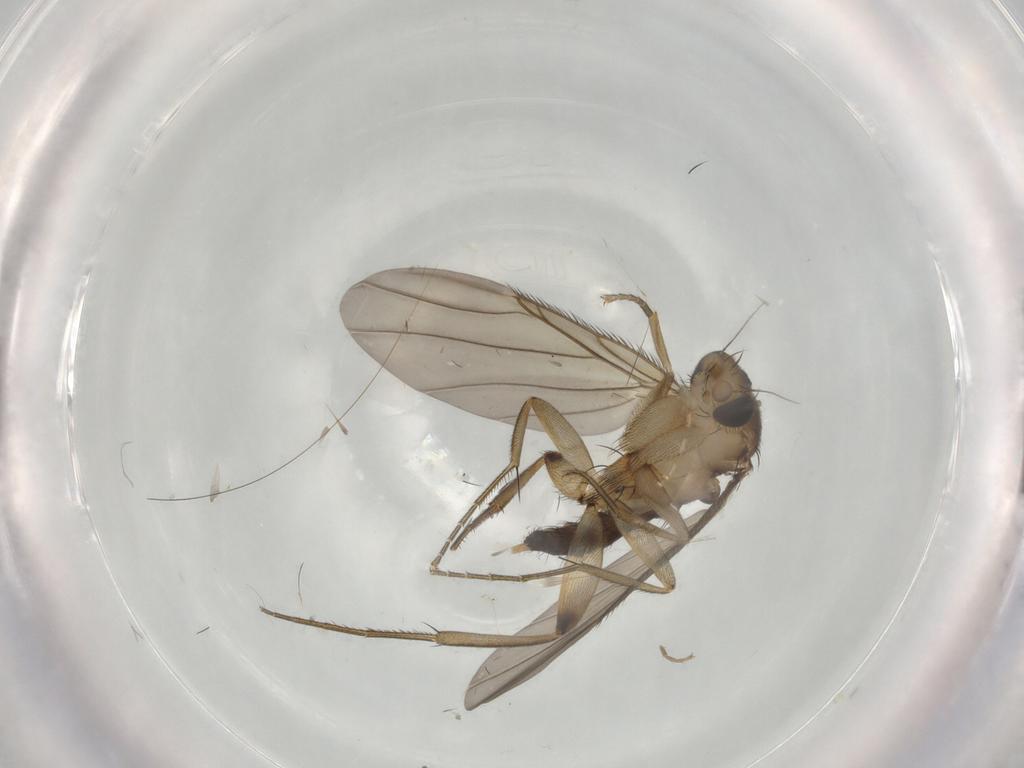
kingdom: Animalia
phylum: Arthropoda
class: Insecta
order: Diptera
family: Phoridae
